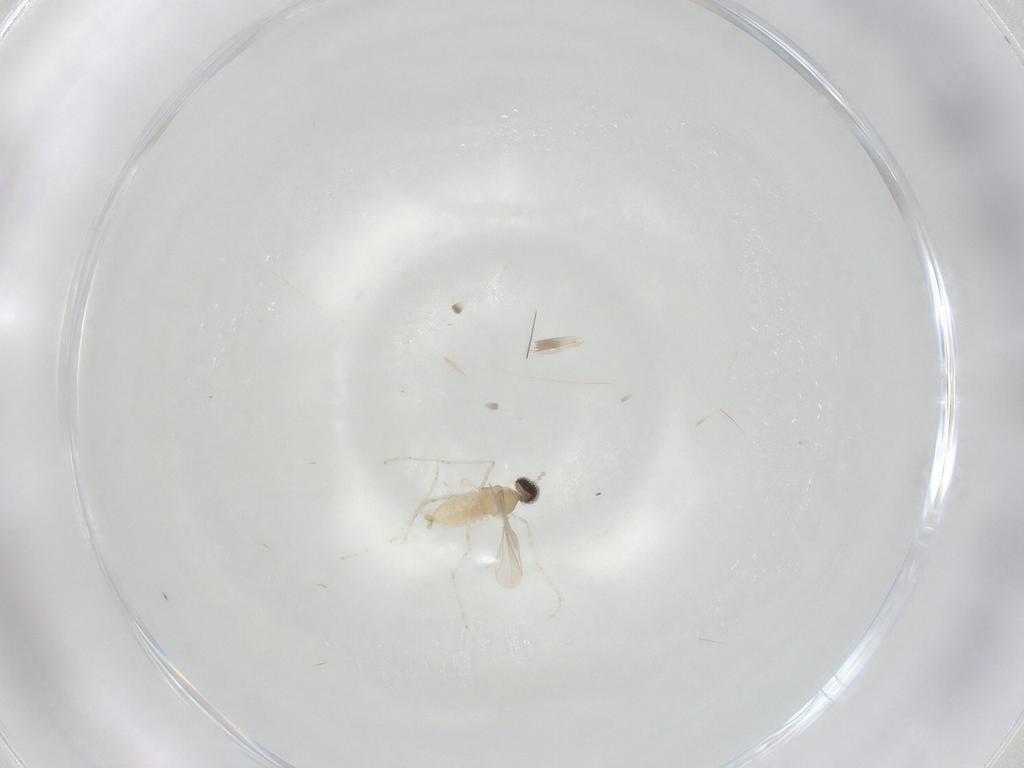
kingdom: Animalia
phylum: Arthropoda
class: Insecta
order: Diptera
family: Cecidomyiidae
